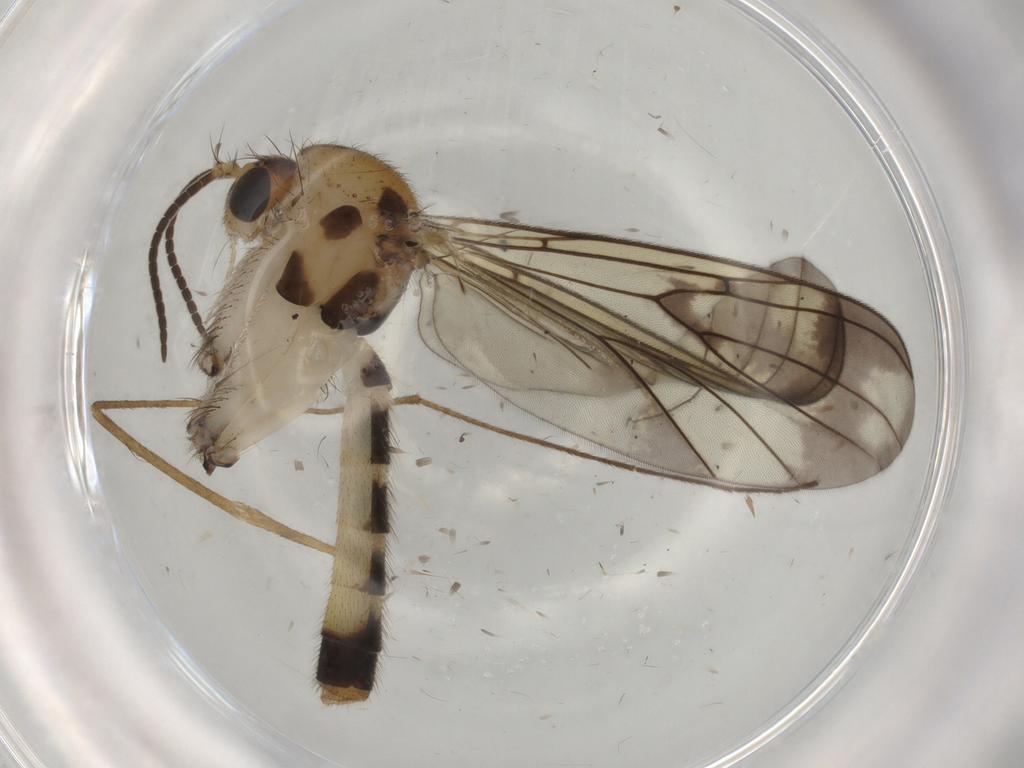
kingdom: Animalia
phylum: Arthropoda
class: Insecta
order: Diptera
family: Mycetophilidae
